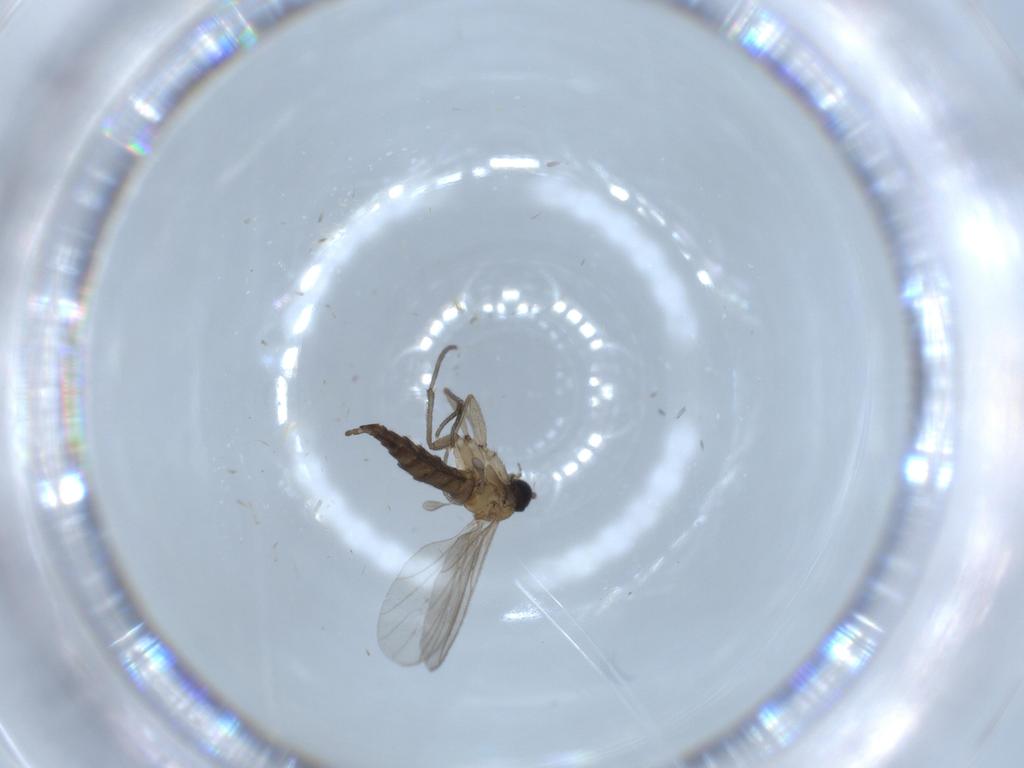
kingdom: Animalia
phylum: Arthropoda
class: Insecta
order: Diptera
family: Sciaridae
